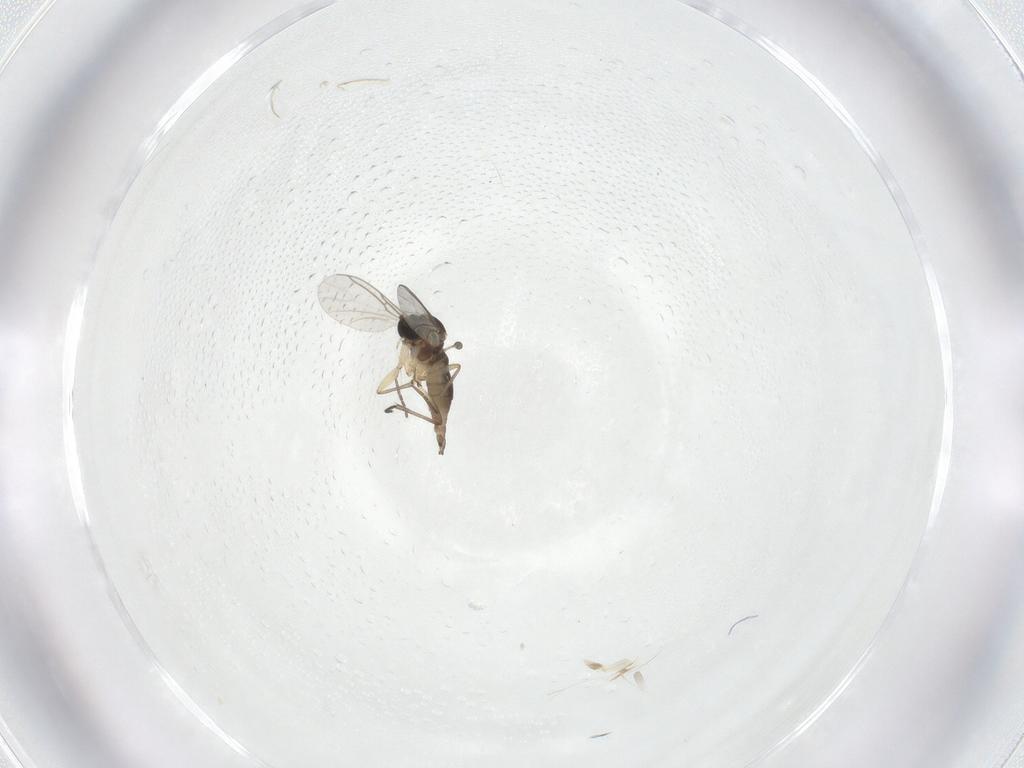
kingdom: Animalia
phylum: Arthropoda
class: Insecta
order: Diptera
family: Sciaridae
